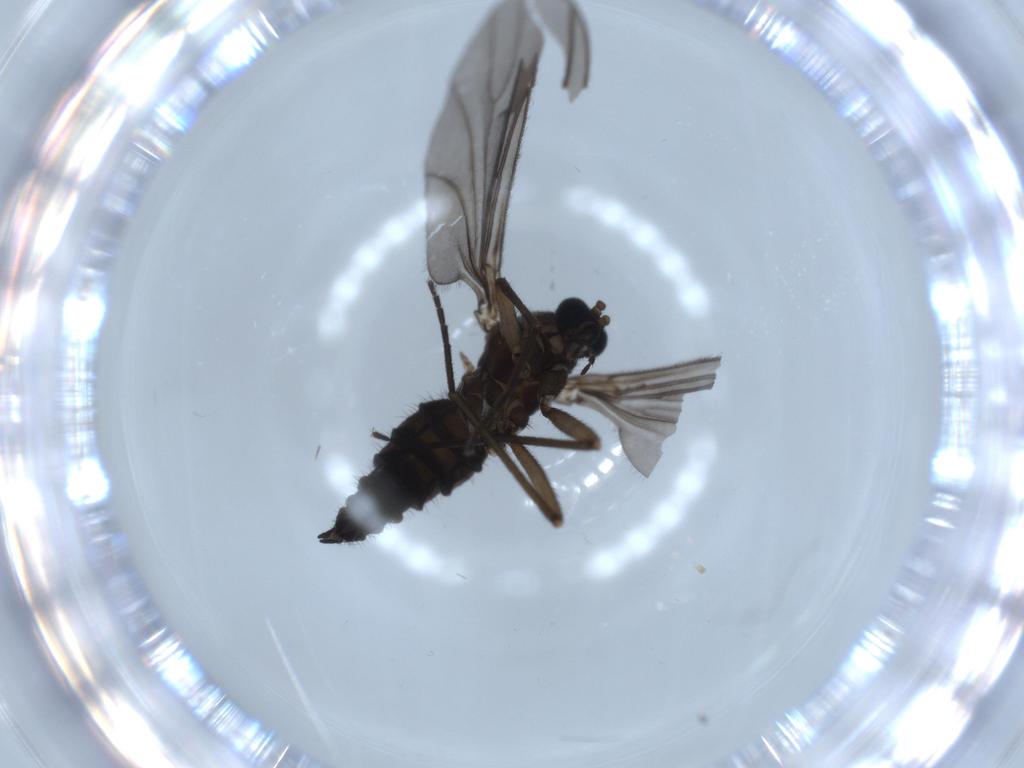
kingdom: Animalia
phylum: Arthropoda
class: Insecta
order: Diptera
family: Sciaridae
